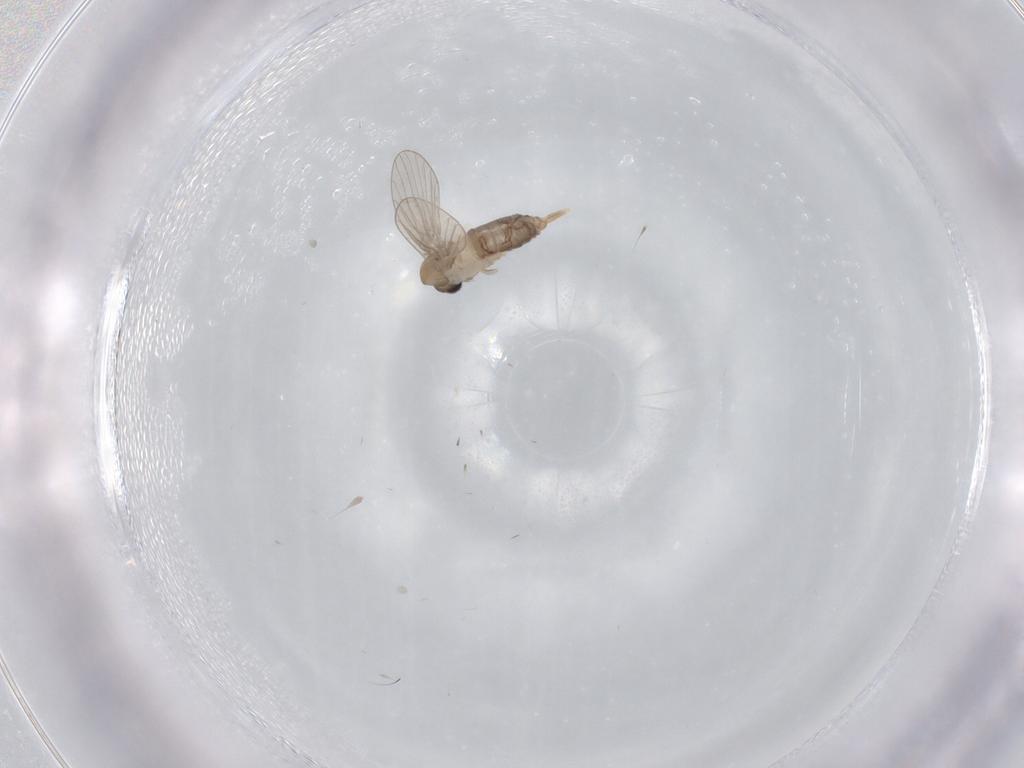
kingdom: Animalia
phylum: Arthropoda
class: Insecta
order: Diptera
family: Psychodidae
